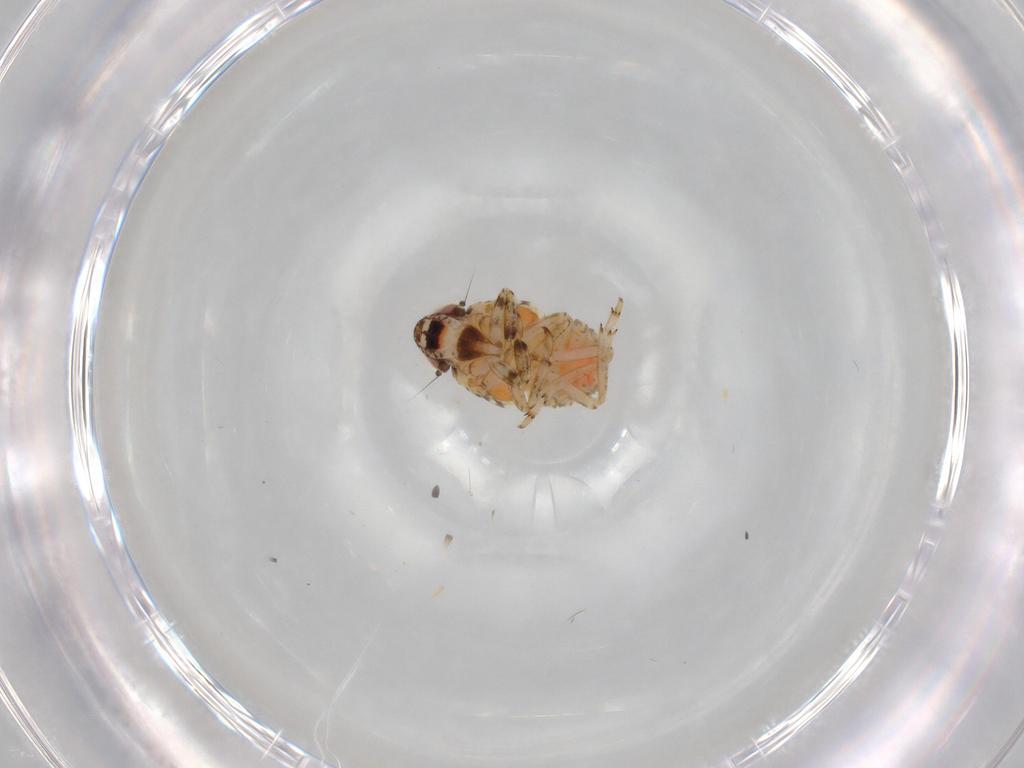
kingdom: Animalia
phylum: Arthropoda
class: Insecta
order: Hemiptera
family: Issidae
